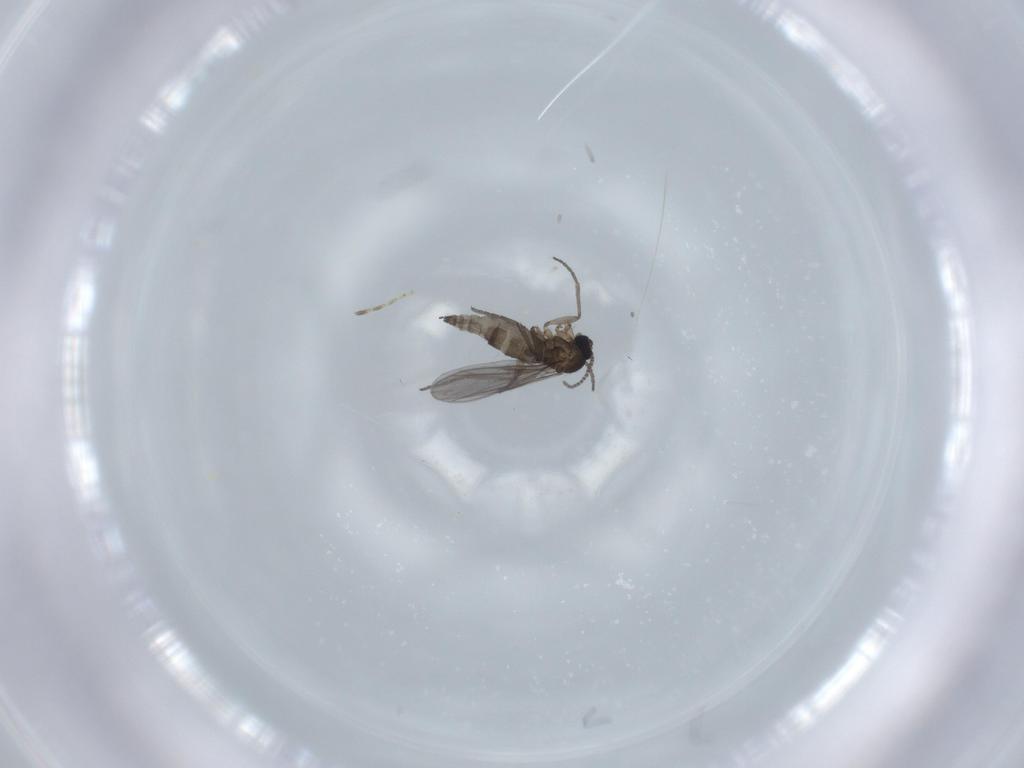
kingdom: Animalia
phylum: Arthropoda
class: Insecta
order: Diptera
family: Ceratopogonidae
